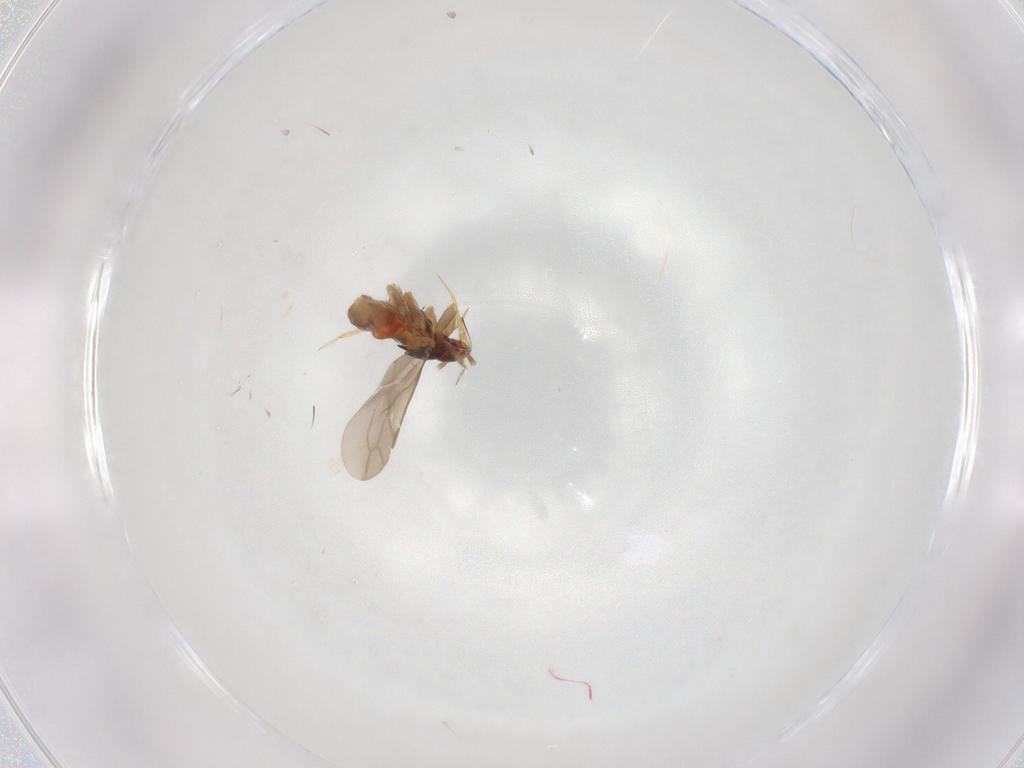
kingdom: Animalia
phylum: Arthropoda
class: Insecta
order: Hemiptera
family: Ceratocombidae
